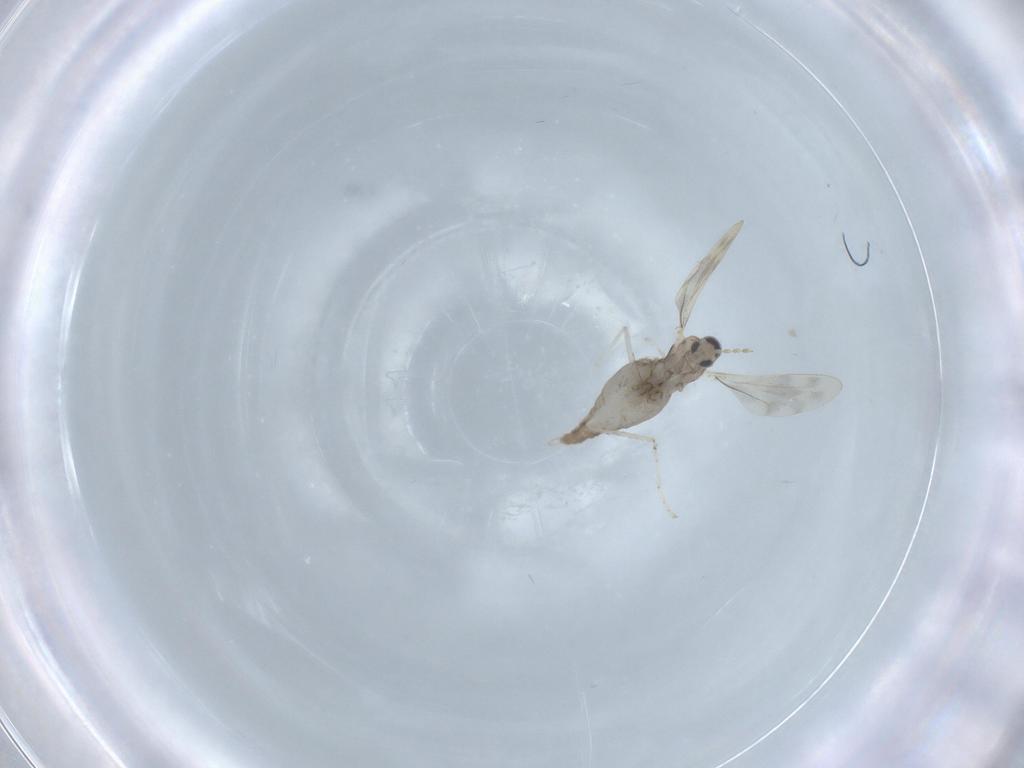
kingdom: Animalia
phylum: Arthropoda
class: Insecta
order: Diptera
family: Cecidomyiidae
